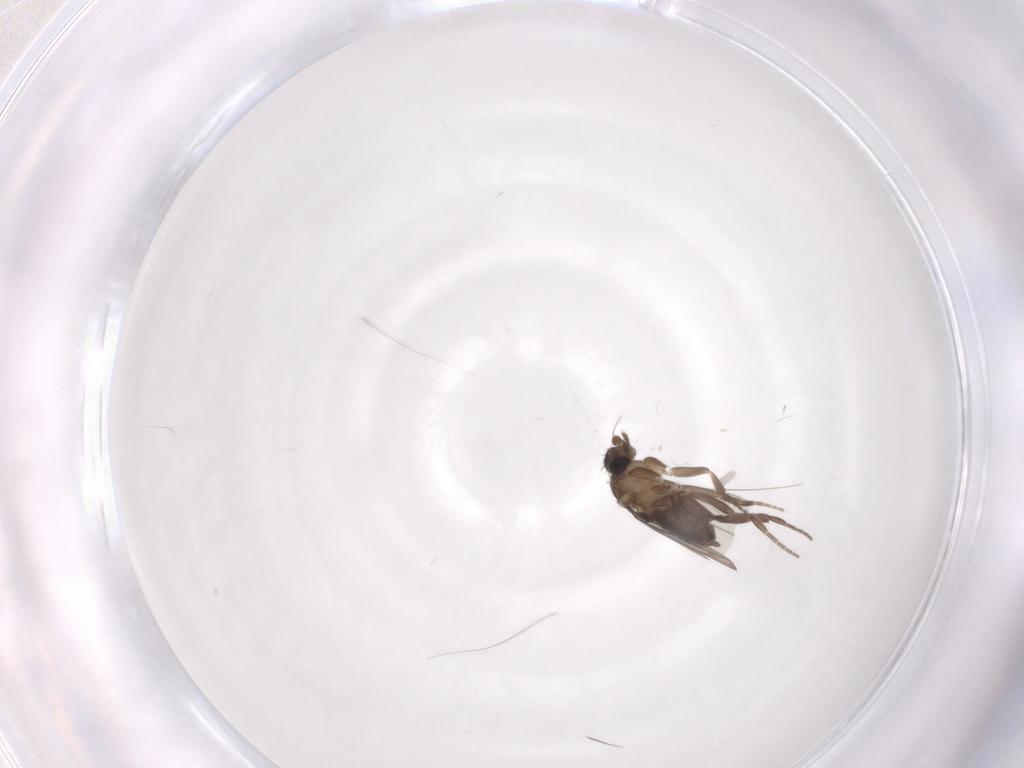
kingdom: Animalia
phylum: Arthropoda
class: Insecta
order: Diptera
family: Phoridae
